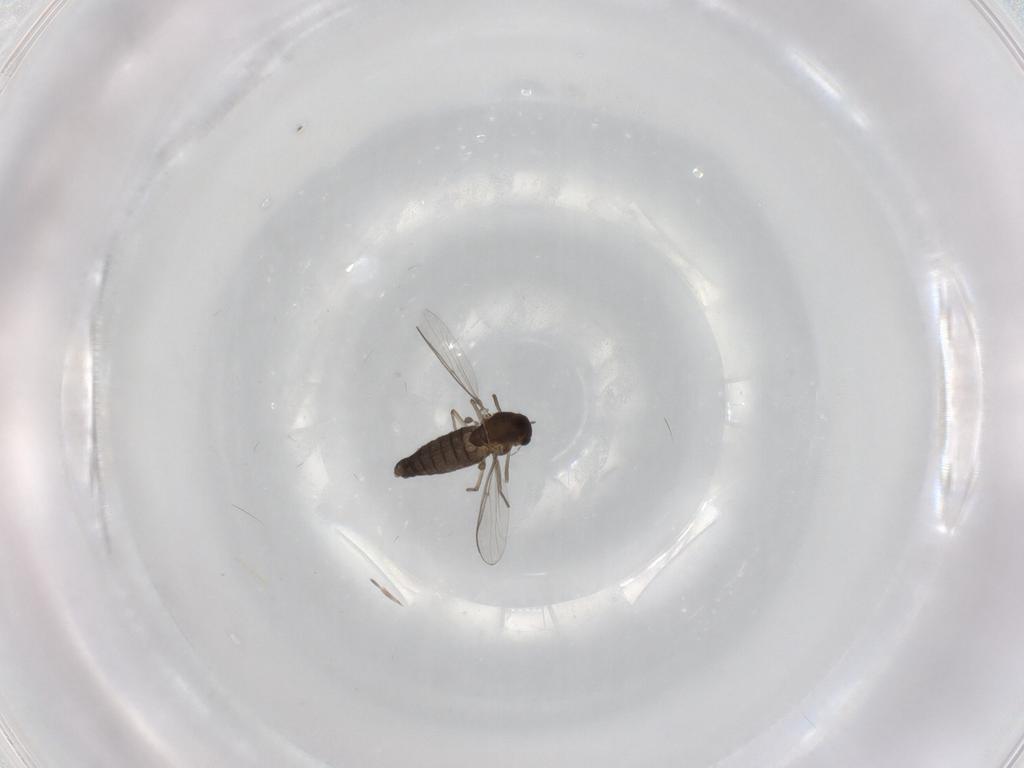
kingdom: Animalia
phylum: Arthropoda
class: Insecta
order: Diptera
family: Chironomidae
